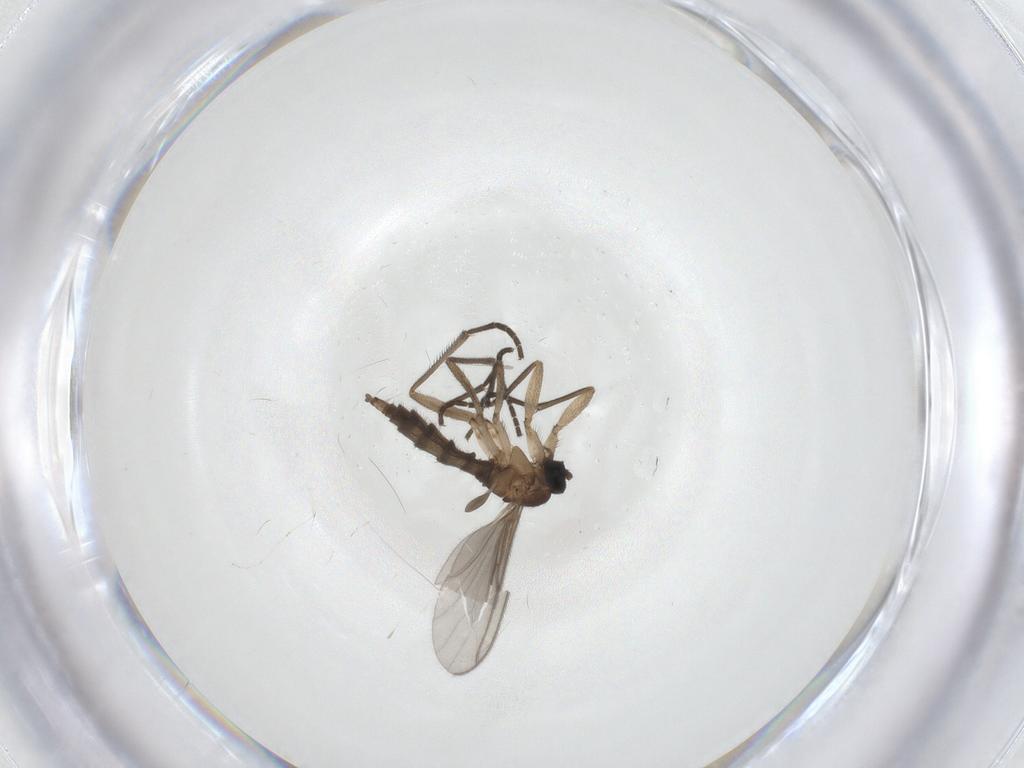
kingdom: Animalia
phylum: Arthropoda
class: Insecta
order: Diptera
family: Sciaridae
